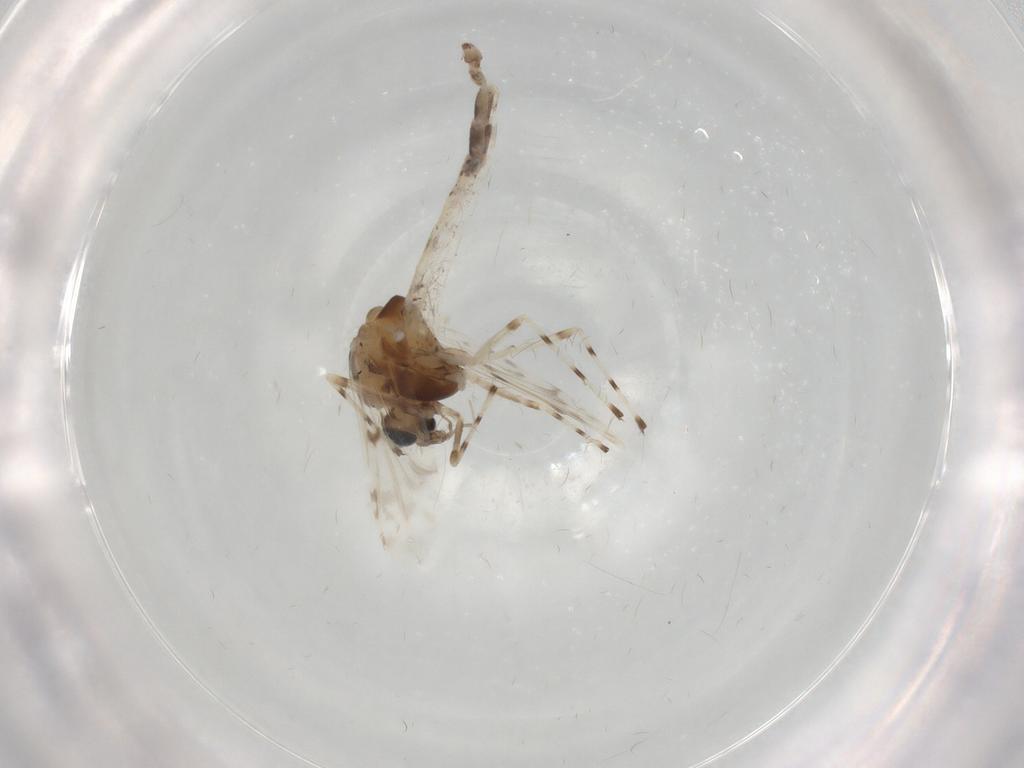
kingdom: Animalia
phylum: Arthropoda
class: Insecta
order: Diptera
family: Chironomidae
